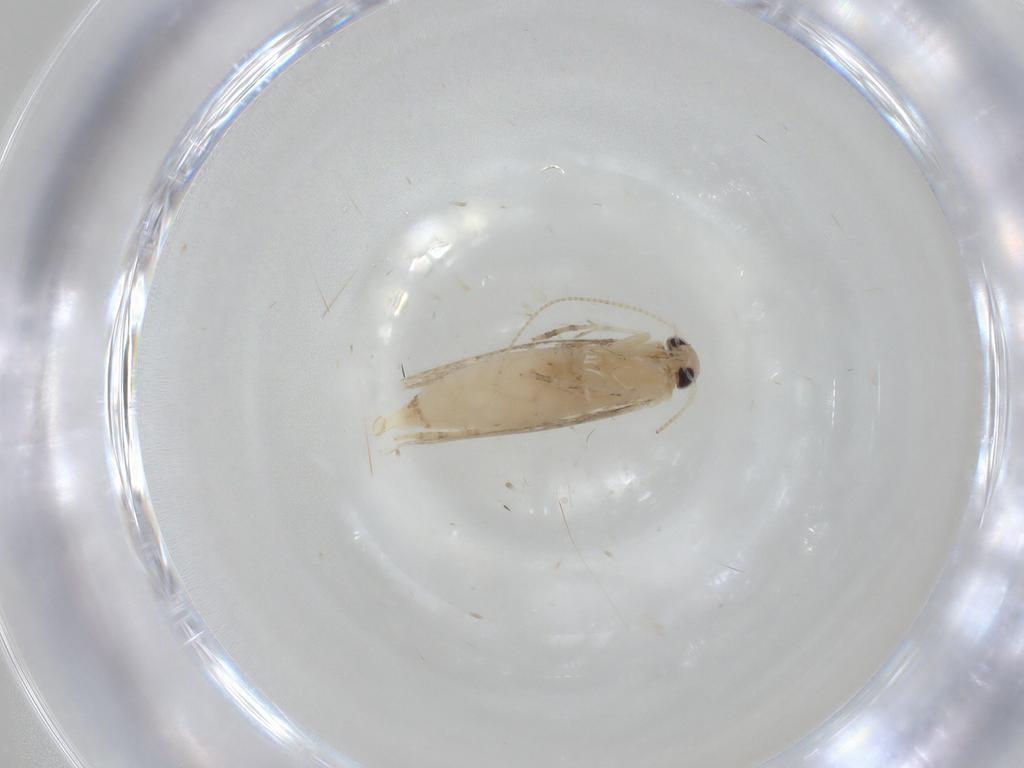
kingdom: Animalia
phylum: Arthropoda
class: Insecta
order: Lepidoptera
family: Gracillariidae
